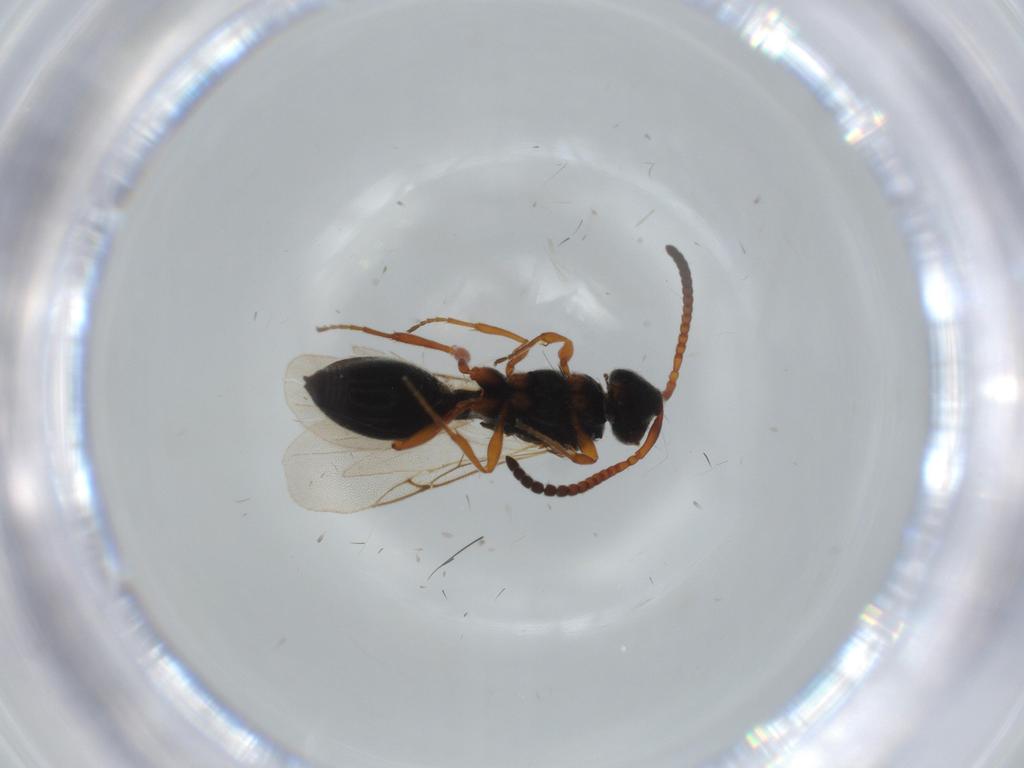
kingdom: Animalia
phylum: Arthropoda
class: Insecta
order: Hymenoptera
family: Diapriidae
